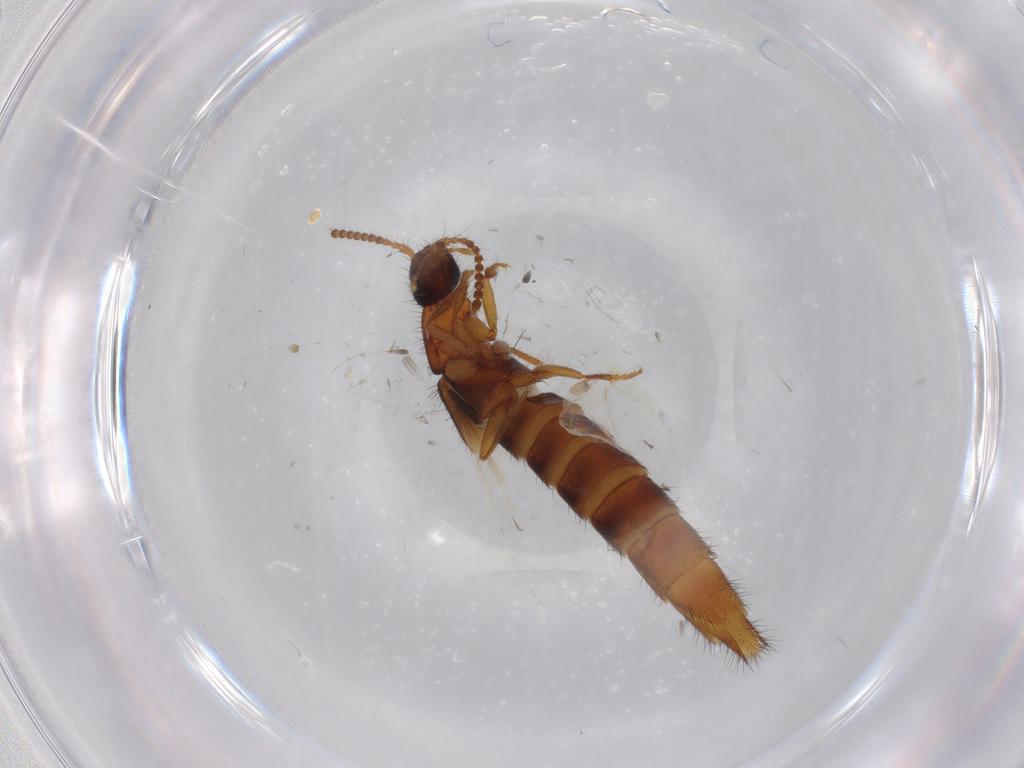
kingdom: Animalia
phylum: Arthropoda
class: Insecta
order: Coleoptera
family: Staphylinidae
